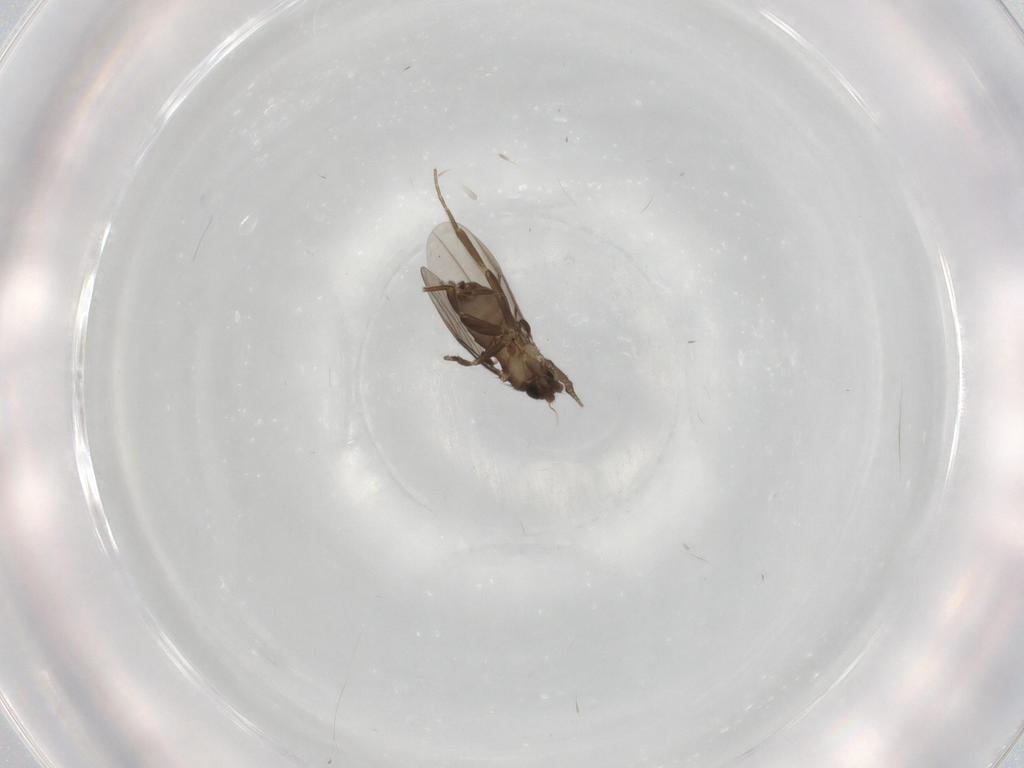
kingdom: Animalia
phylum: Arthropoda
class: Insecta
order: Diptera
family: Phoridae
